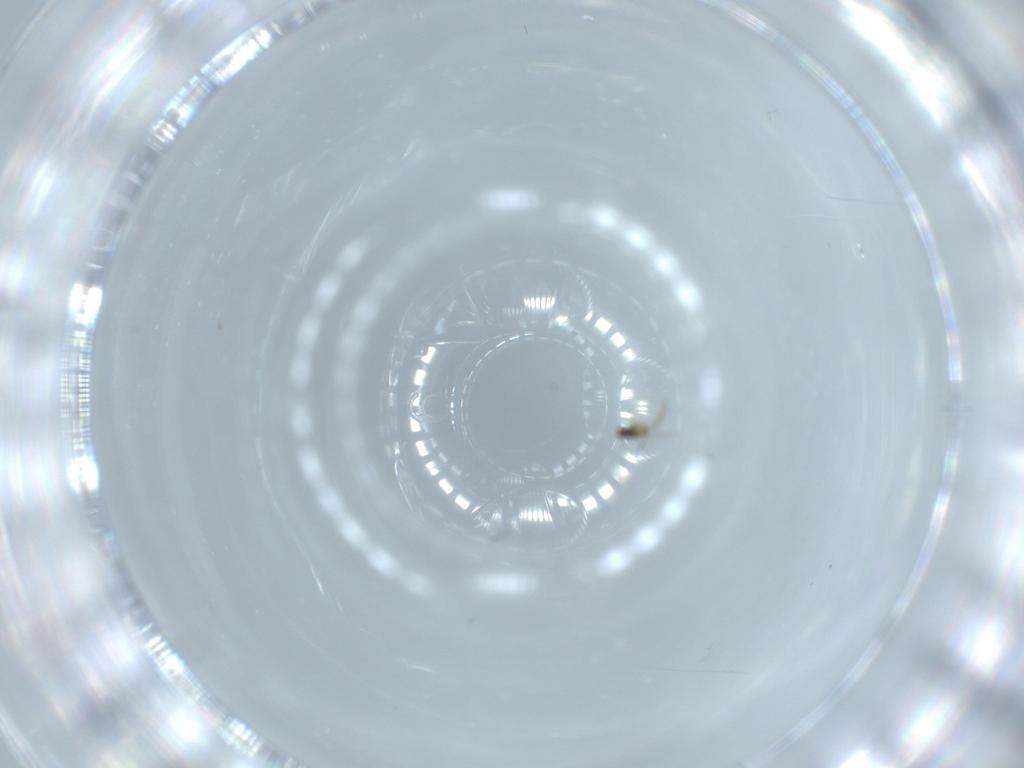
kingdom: Animalia
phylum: Arthropoda
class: Insecta
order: Diptera
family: Sciaridae
